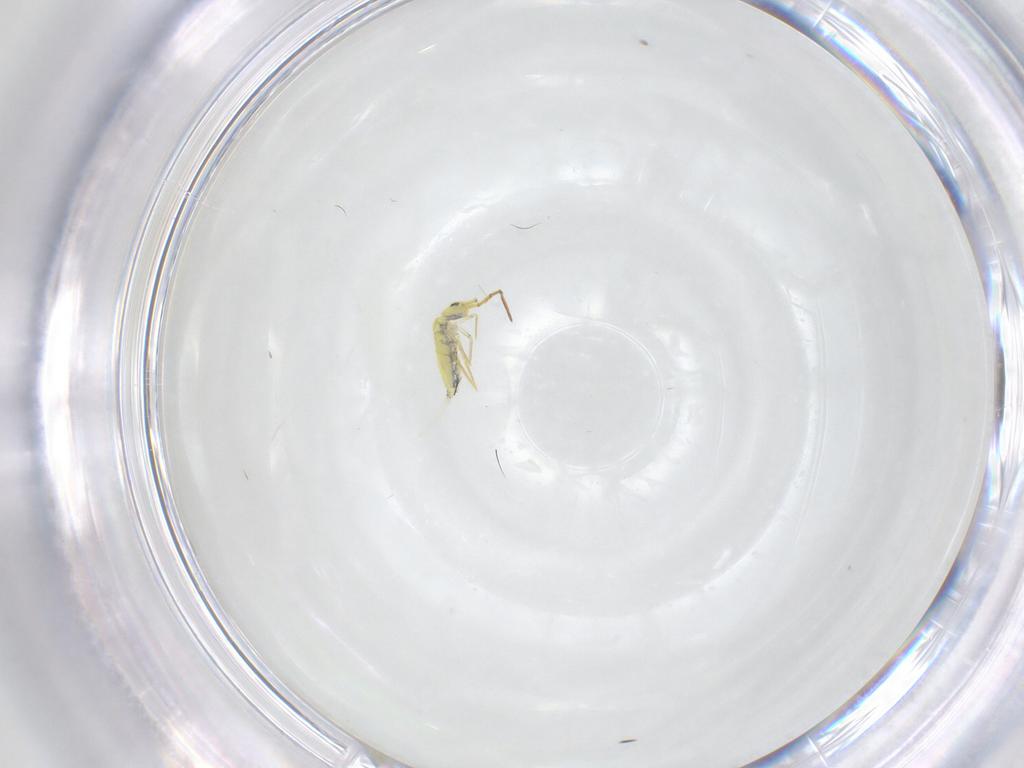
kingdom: Animalia
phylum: Arthropoda
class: Collembola
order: Entomobryomorpha
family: Entomobryidae
